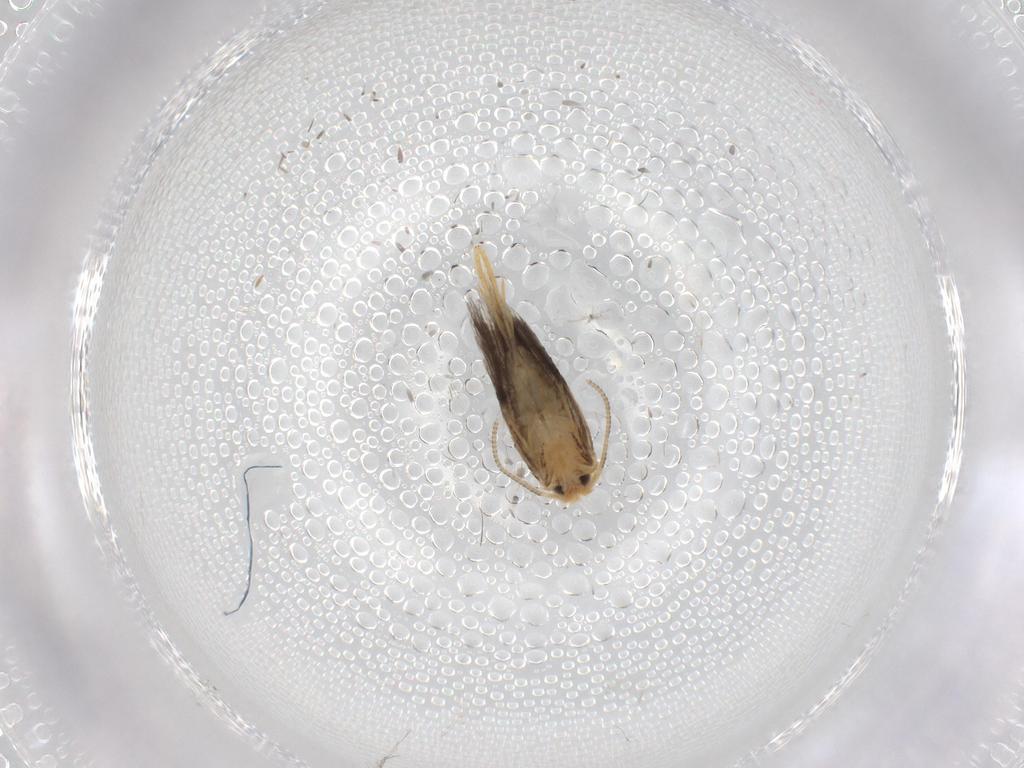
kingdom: Animalia
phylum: Arthropoda
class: Insecta
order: Lepidoptera
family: Nepticulidae
